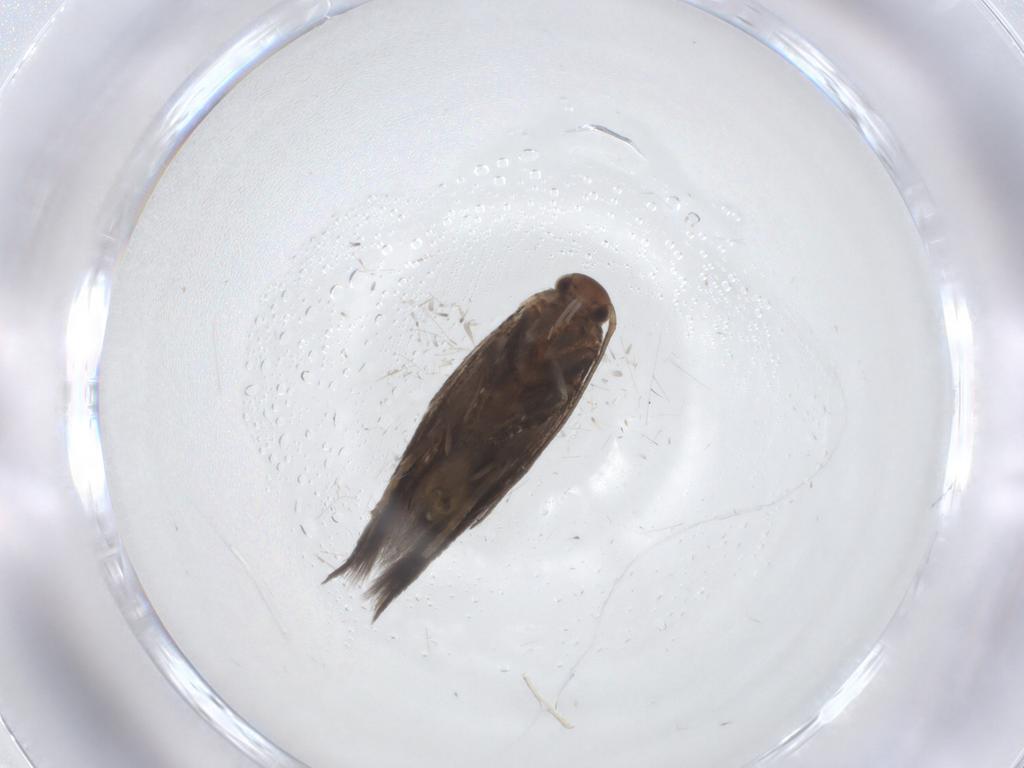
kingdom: Animalia
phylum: Arthropoda
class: Insecta
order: Lepidoptera
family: Elachistidae
